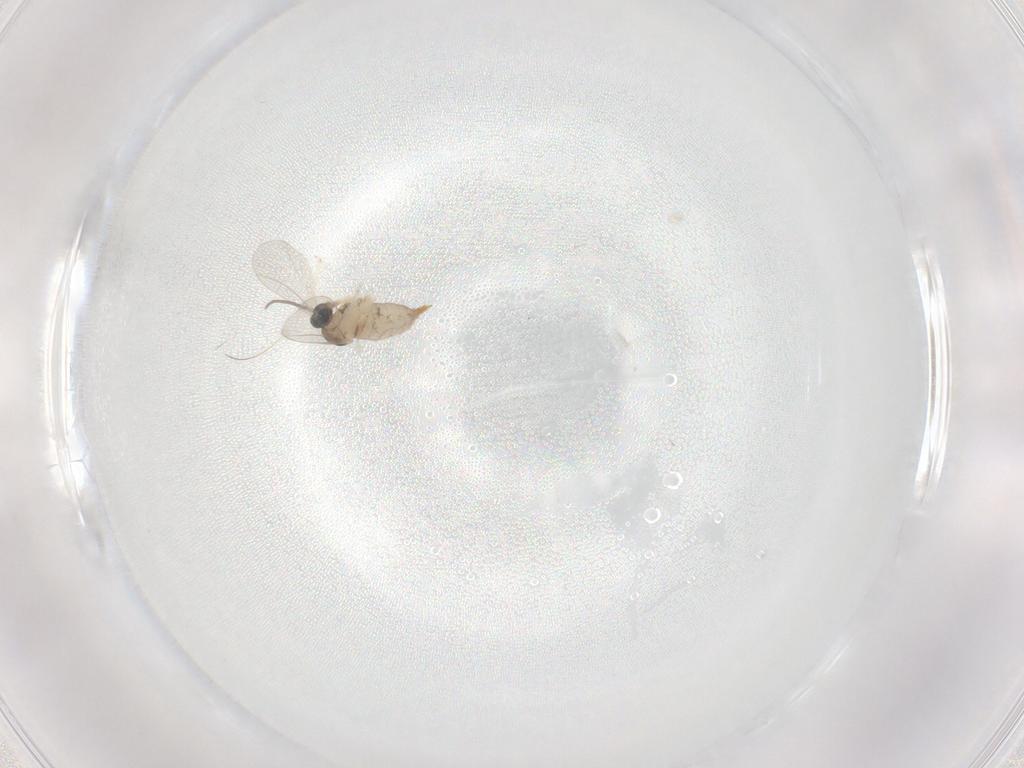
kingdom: Animalia
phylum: Arthropoda
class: Insecta
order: Diptera
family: Cecidomyiidae
